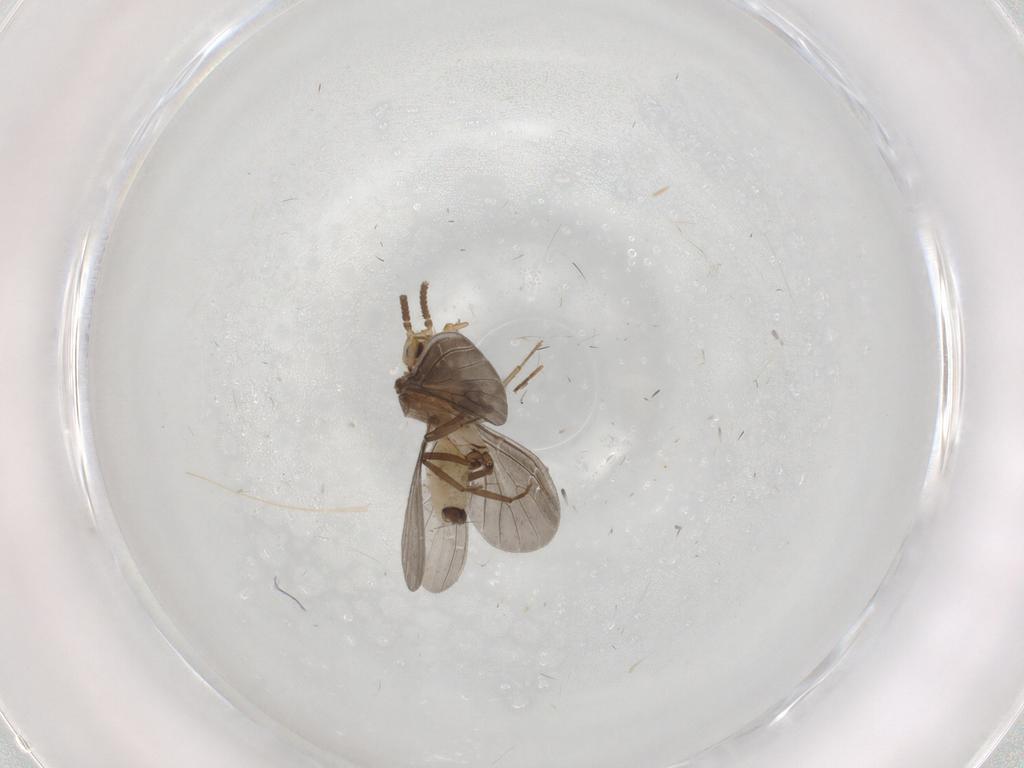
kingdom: Animalia
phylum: Arthropoda
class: Insecta
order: Neuroptera
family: Coniopterygidae
